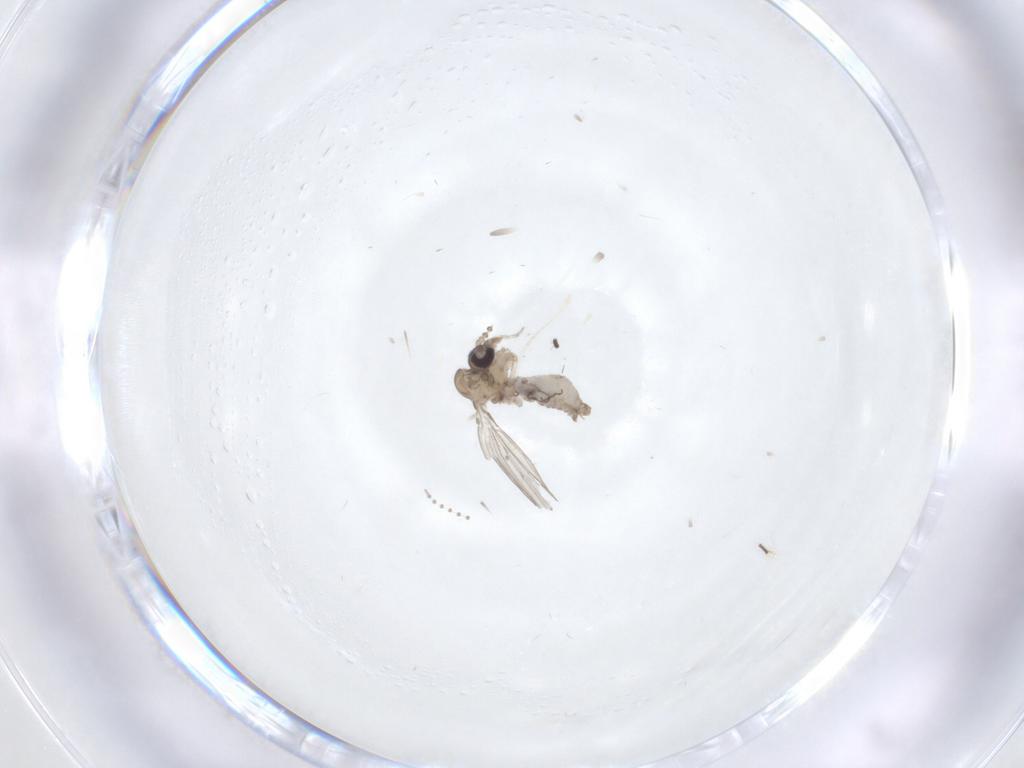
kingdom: Animalia
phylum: Arthropoda
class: Insecta
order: Diptera
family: Psychodidae
